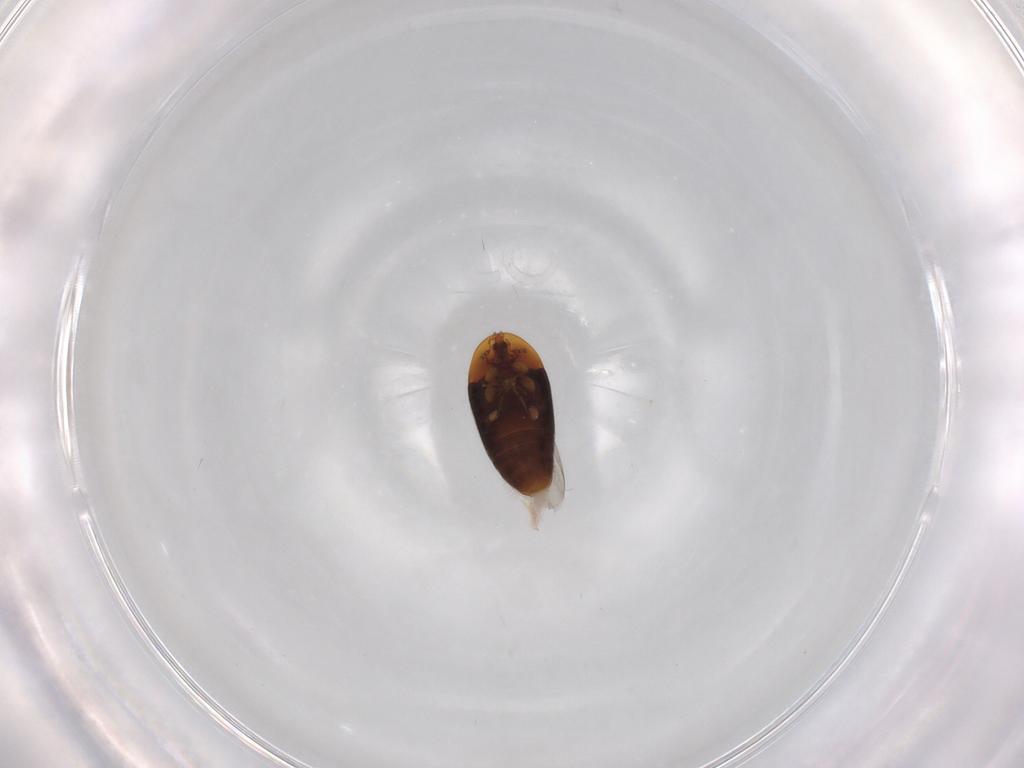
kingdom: Animalia
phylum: Arthropoda
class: Insecta
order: Coleoptera
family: Corylophidae
